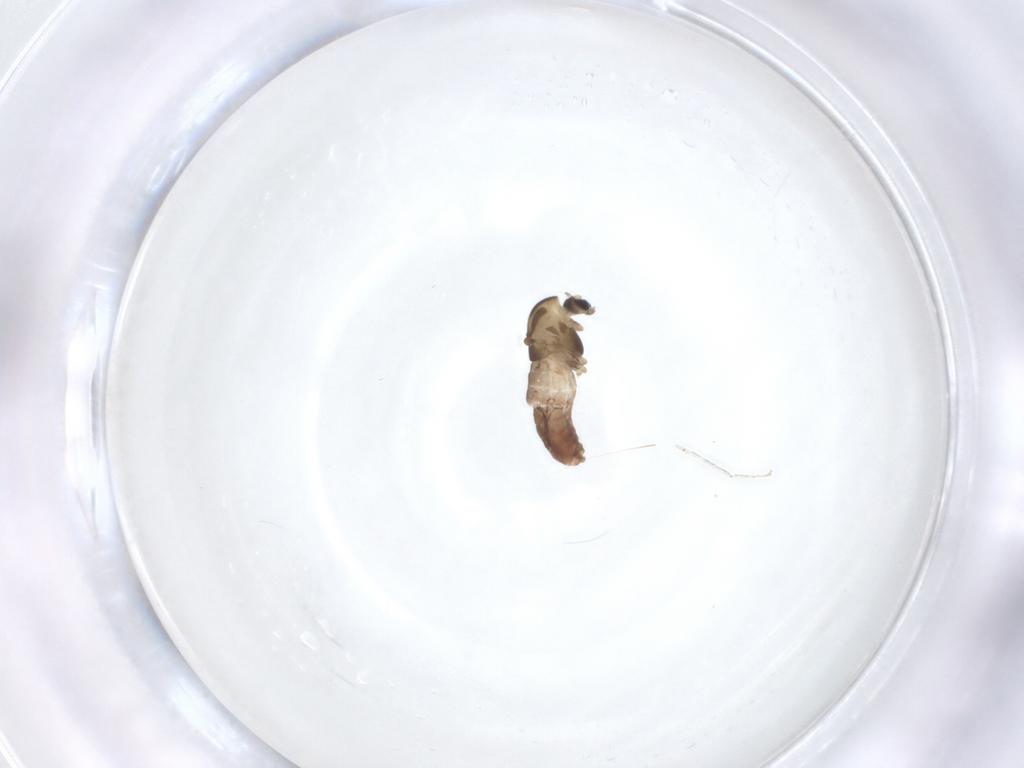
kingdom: Animalia
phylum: Arthropoda
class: Insecta
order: Diptera
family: Chironomidae
